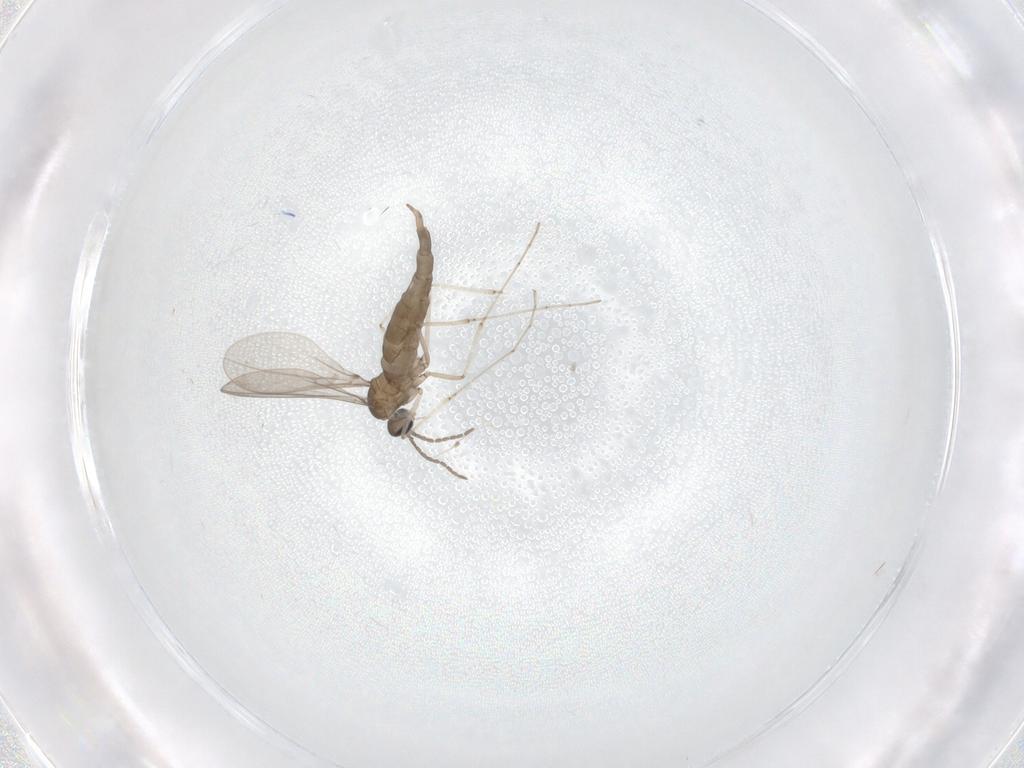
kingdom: Animalia
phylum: Arthropoda
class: Insecta
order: Diptera
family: Cecidomyiidae
